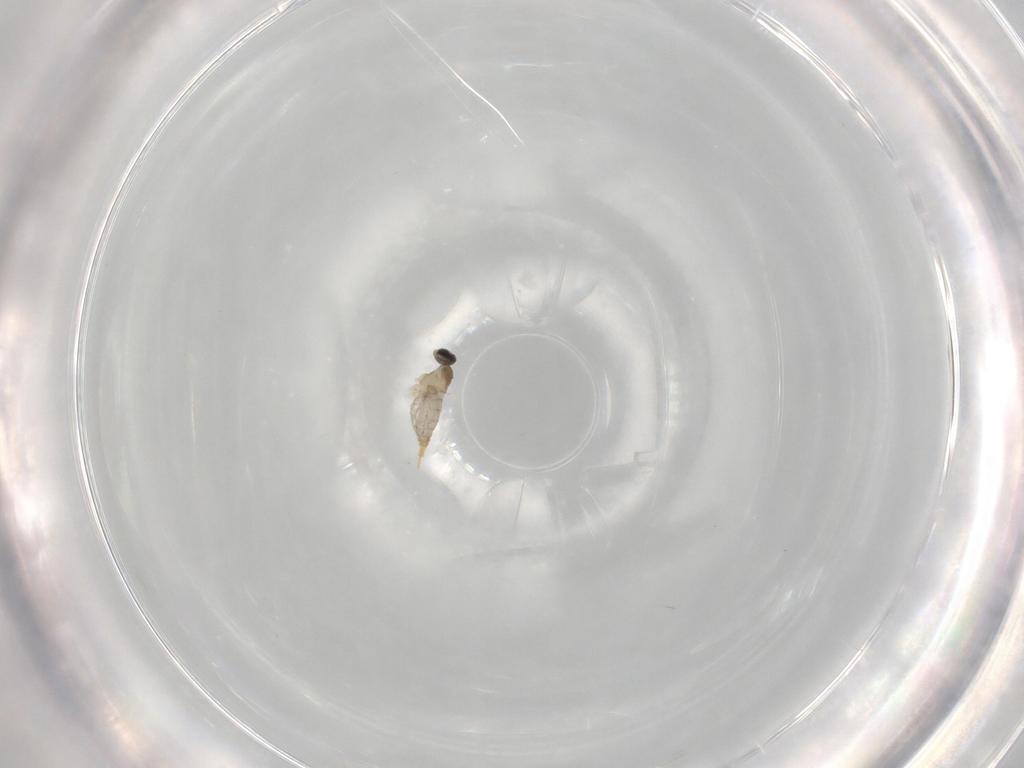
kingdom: Animalia
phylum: Arthropoda
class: Insecta
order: Diptera
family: Cecidomyiidae
